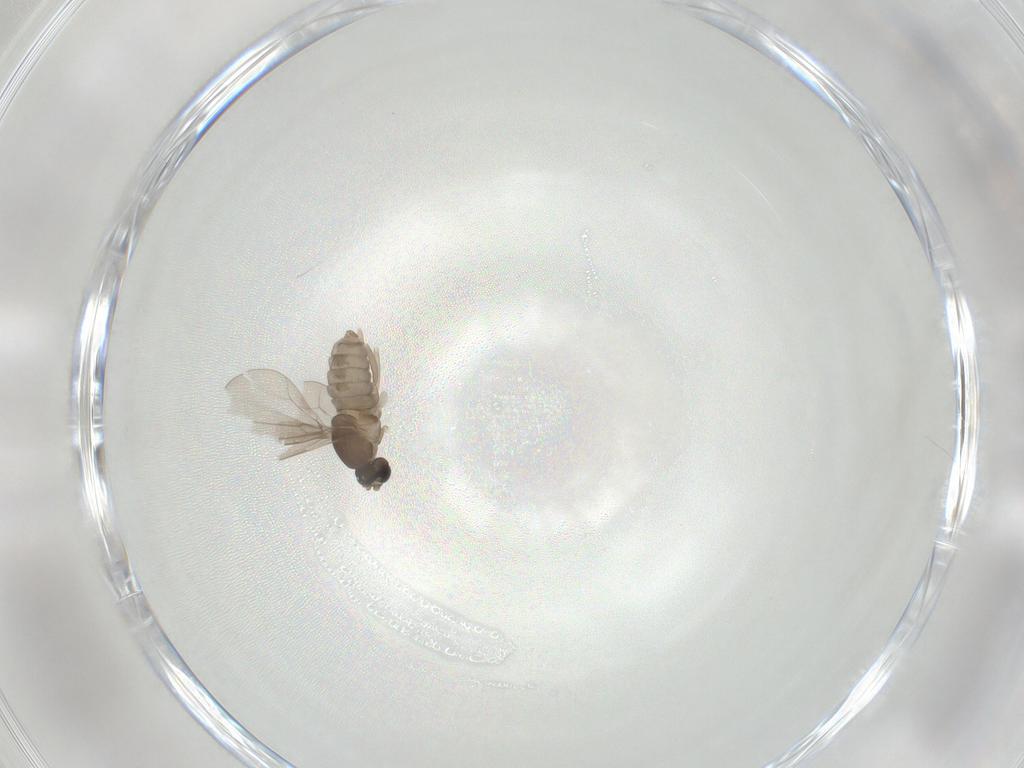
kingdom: Animalia
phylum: Arthropoda
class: Insecta
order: Diptera
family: Cecidomyiidae
